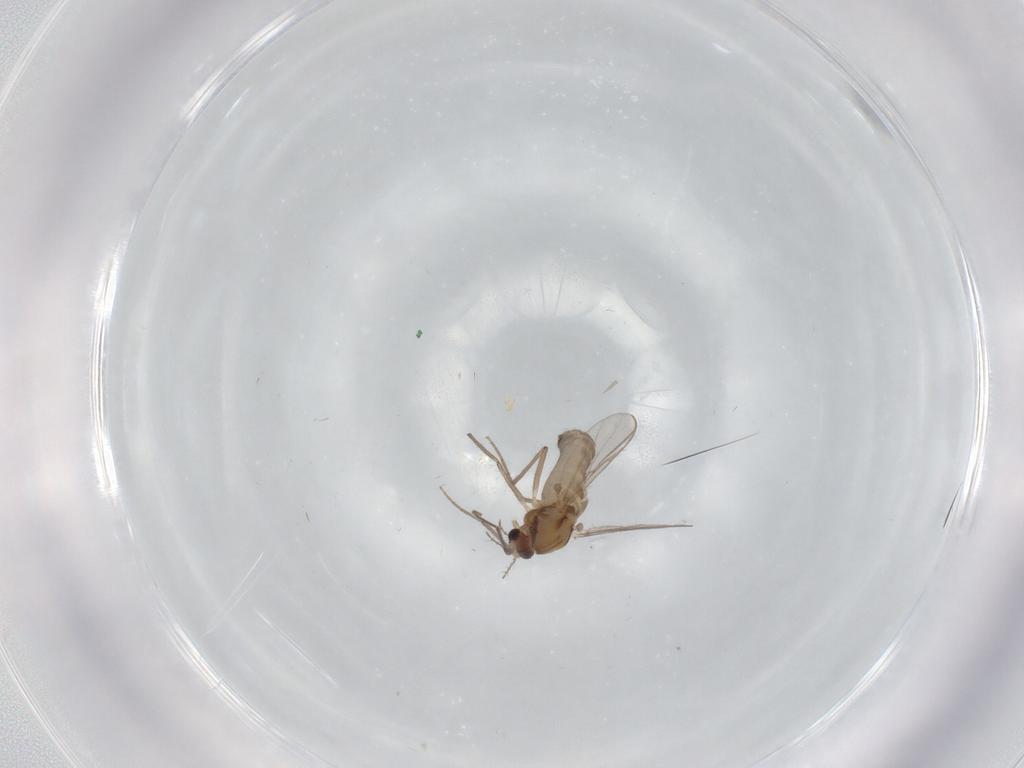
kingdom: Animalia
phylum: Arthropoda
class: Insecta
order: Diptera
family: Chironomidae
